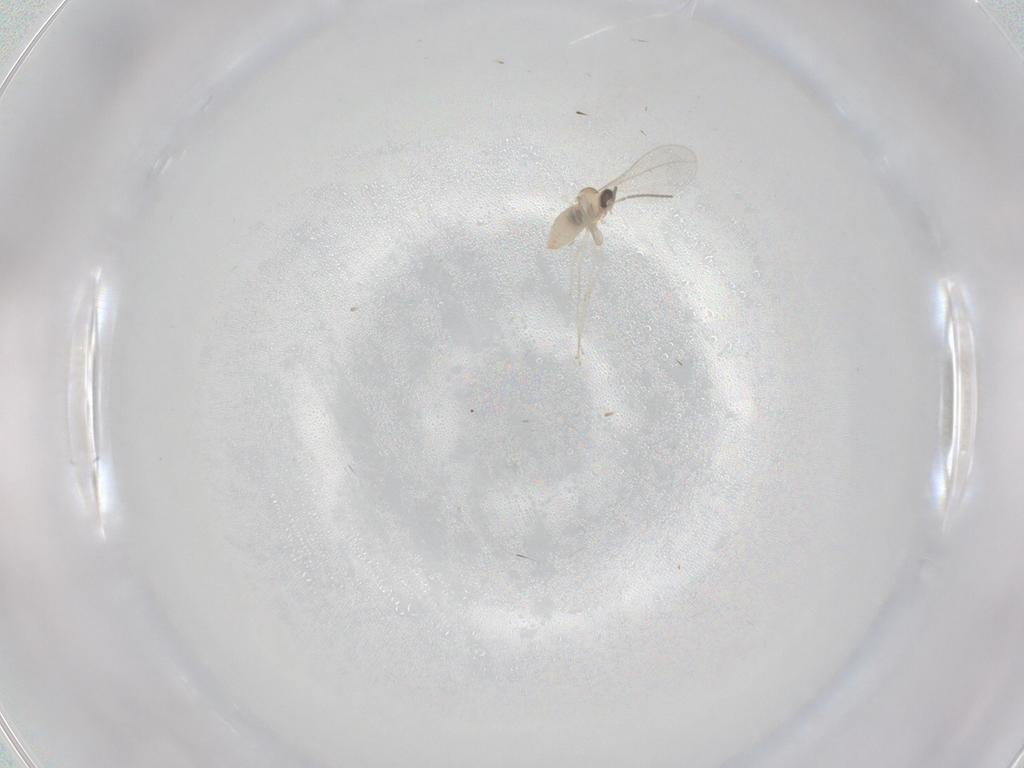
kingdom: Animalia
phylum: Arthropoda
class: Insecta
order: Diptera
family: Cecidomyiidae
